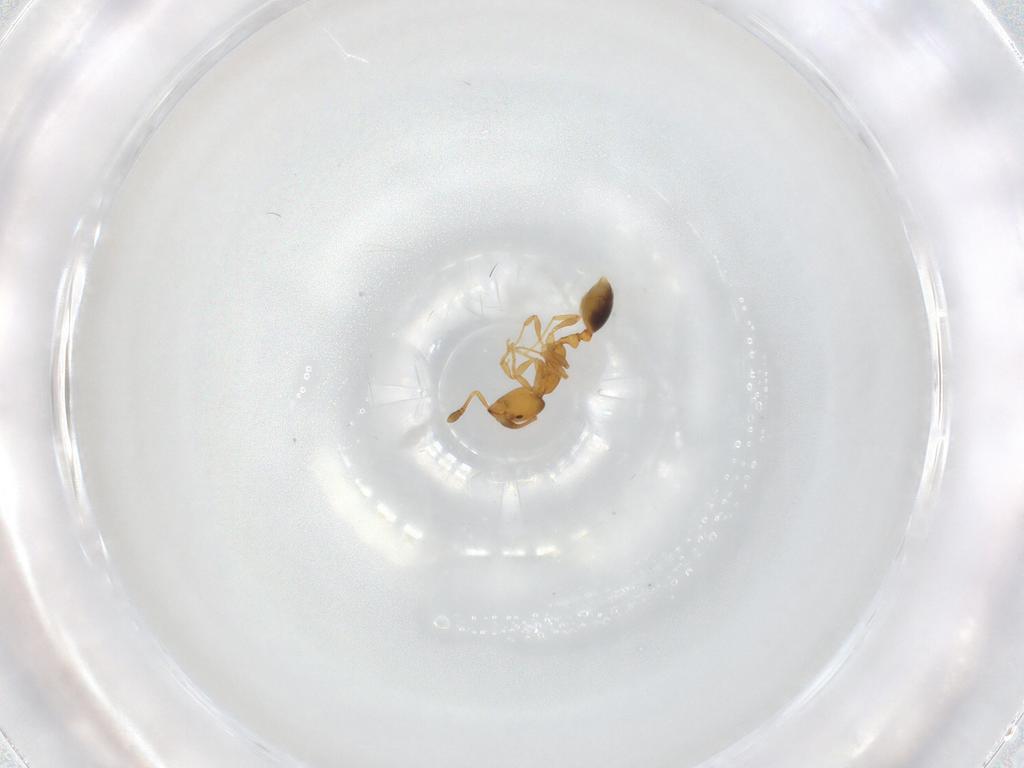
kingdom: Animalia
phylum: Arthropoda
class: Insecta
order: Hymenoptera
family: Formicidae
